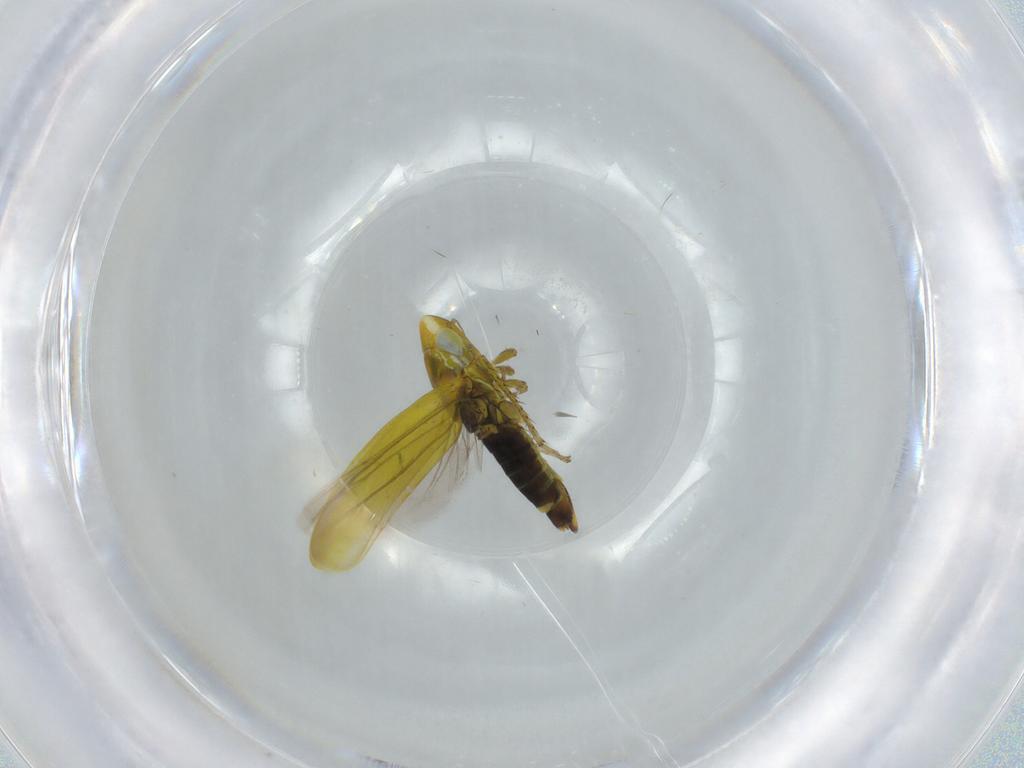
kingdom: Animalia
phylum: Arthropoda
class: Insecta
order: Hemiptera
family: Cicadellidae
